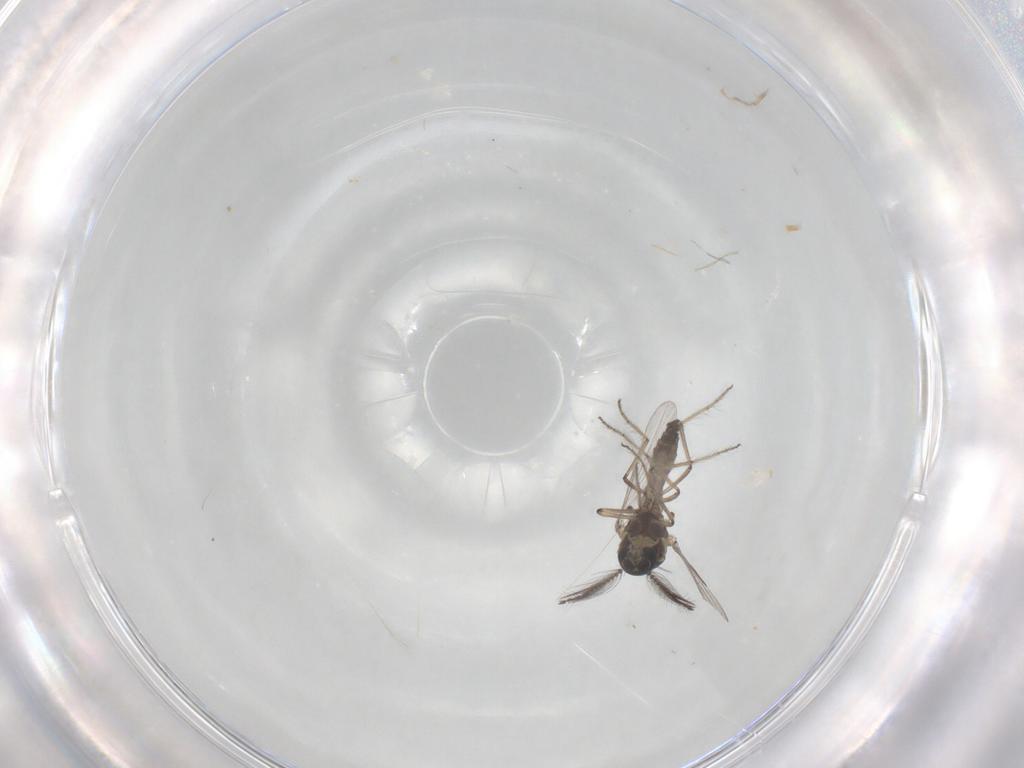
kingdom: Animalia
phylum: Arthropoda
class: Insecta
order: Diptera
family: Ceratopogonidae
